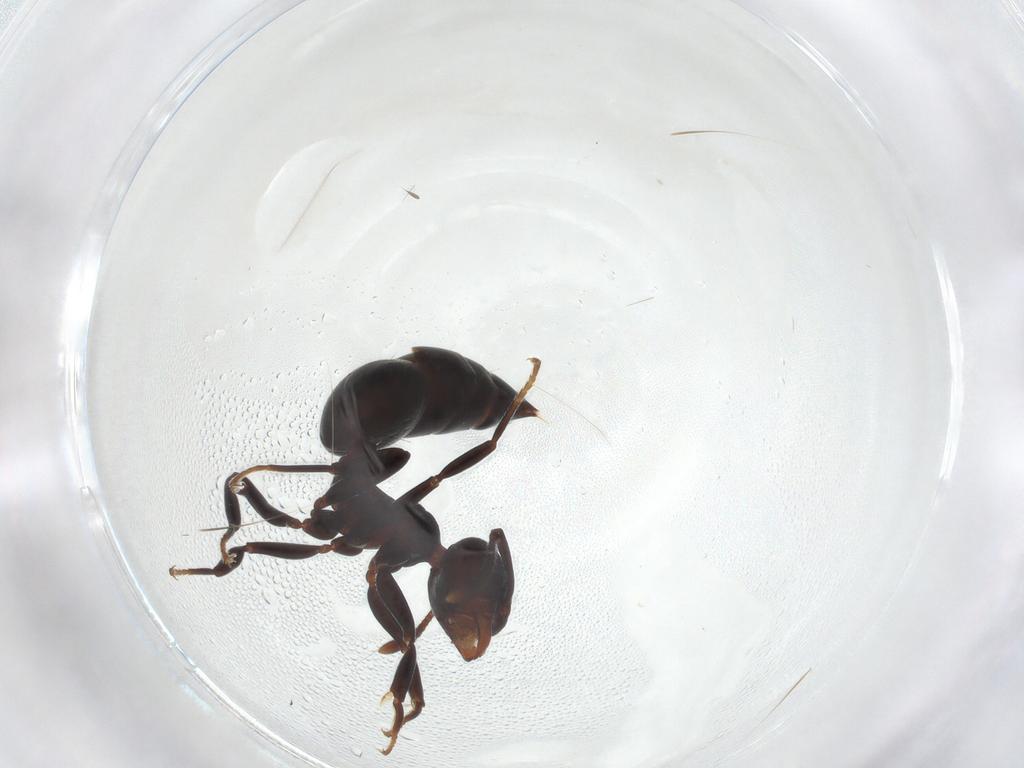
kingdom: Animalia
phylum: Arthropoda
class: Insecta
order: Hymenoptera
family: Formicidae
